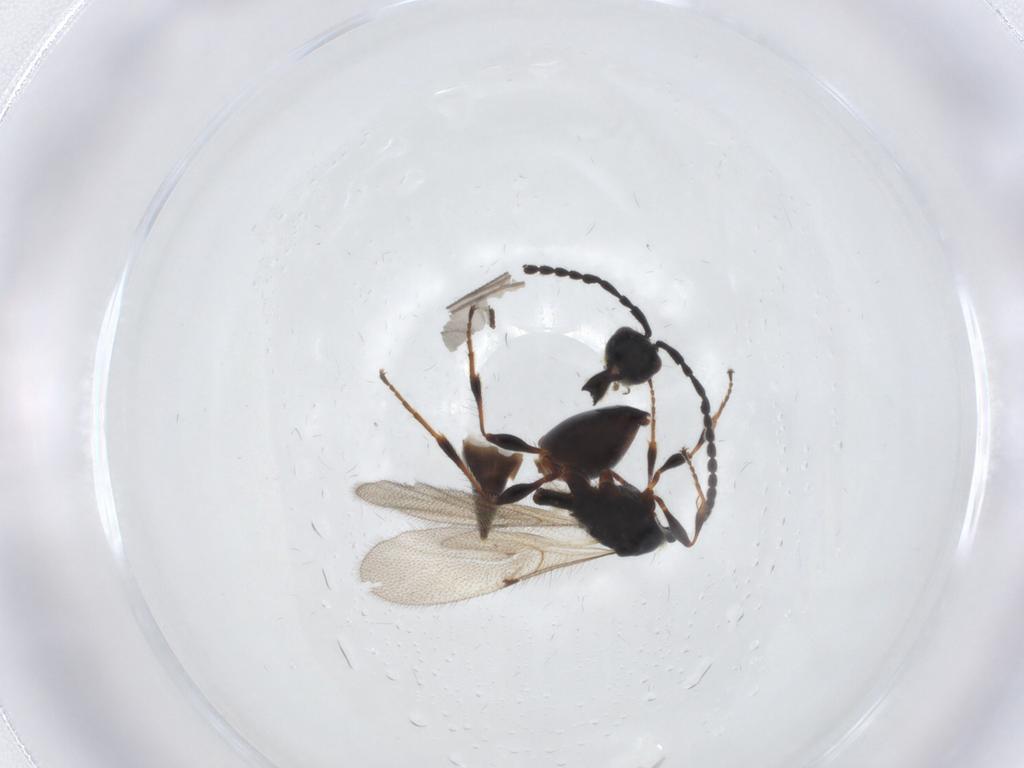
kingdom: Animalia
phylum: Arthropoda
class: Insecta
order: Hymenoptera
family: Diapriidae
